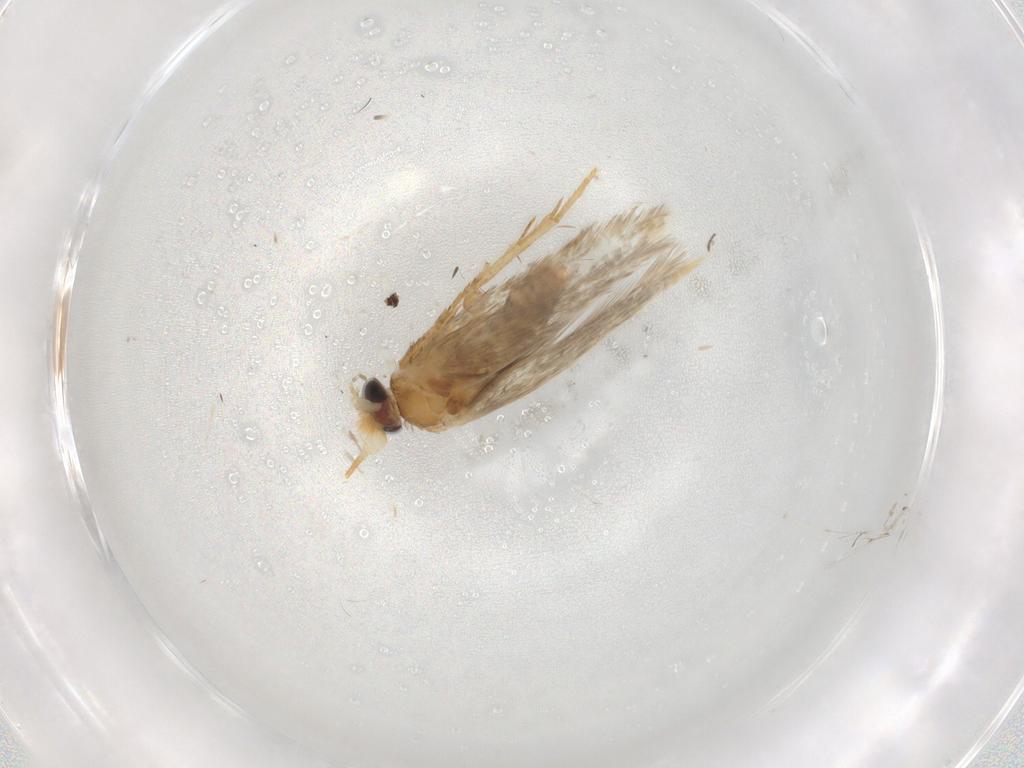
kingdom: Animalia
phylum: Arthropoda
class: Insecta
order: Lepidoptera
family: Nepticulidae
